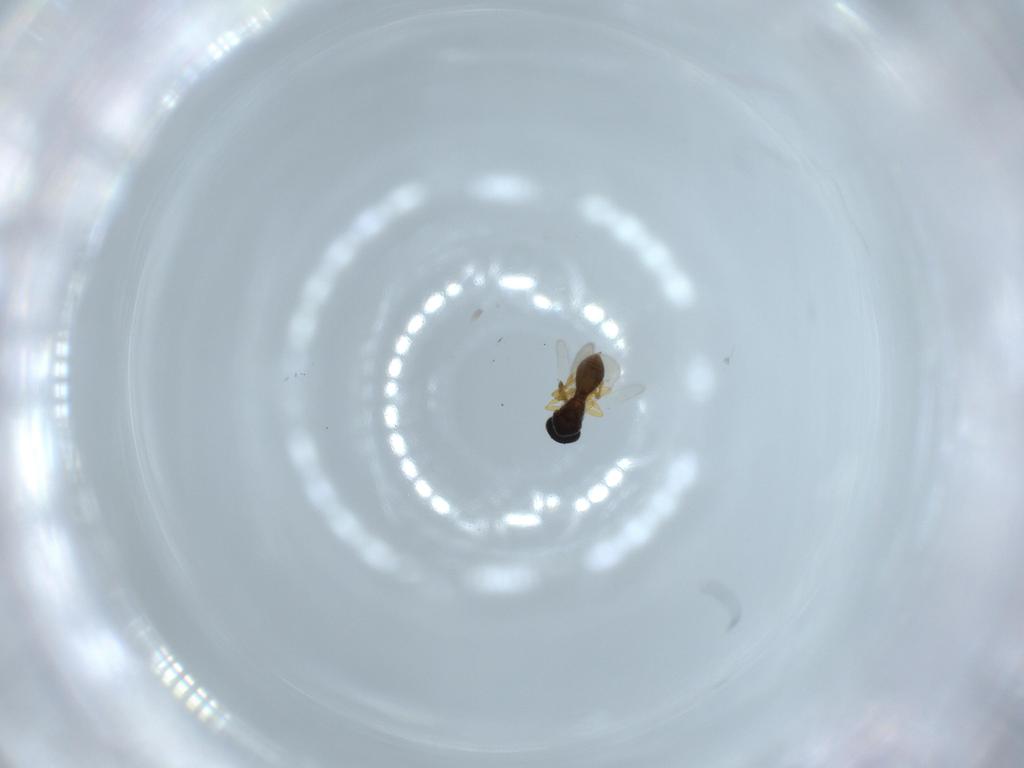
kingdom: Animalia
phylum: Arthropoda
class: Insecta
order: Hymenoptera
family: Platygastridae
